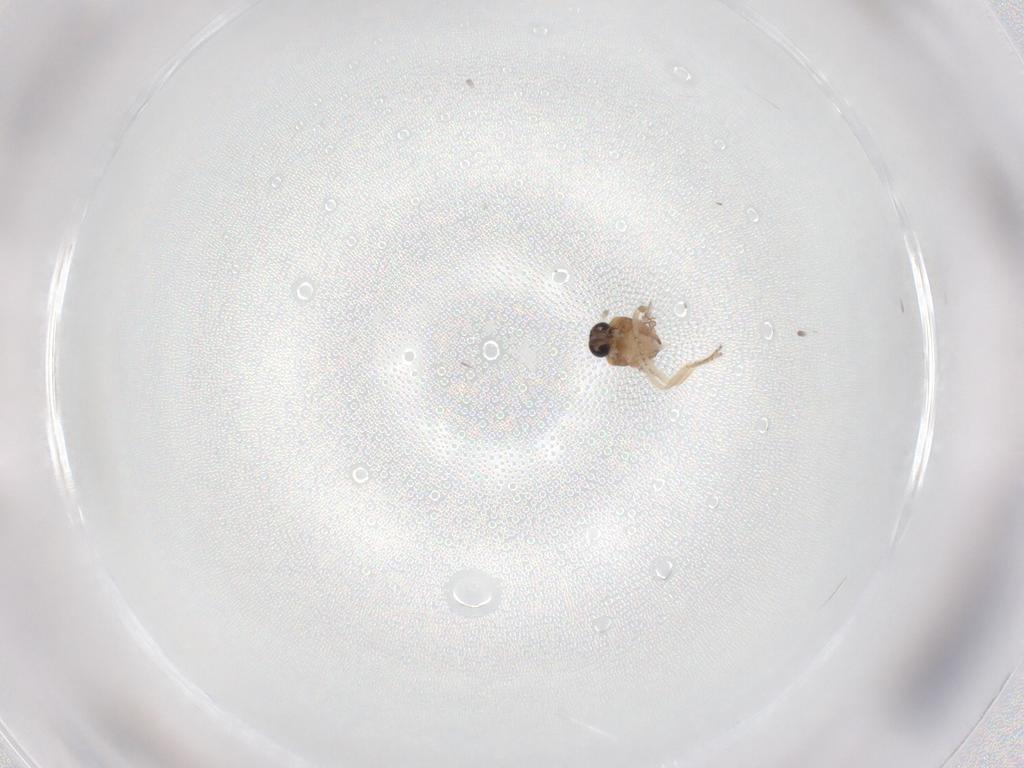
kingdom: Animalia
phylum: Arthropoda
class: Insecta
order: Diptera
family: Ceratopogonidae
